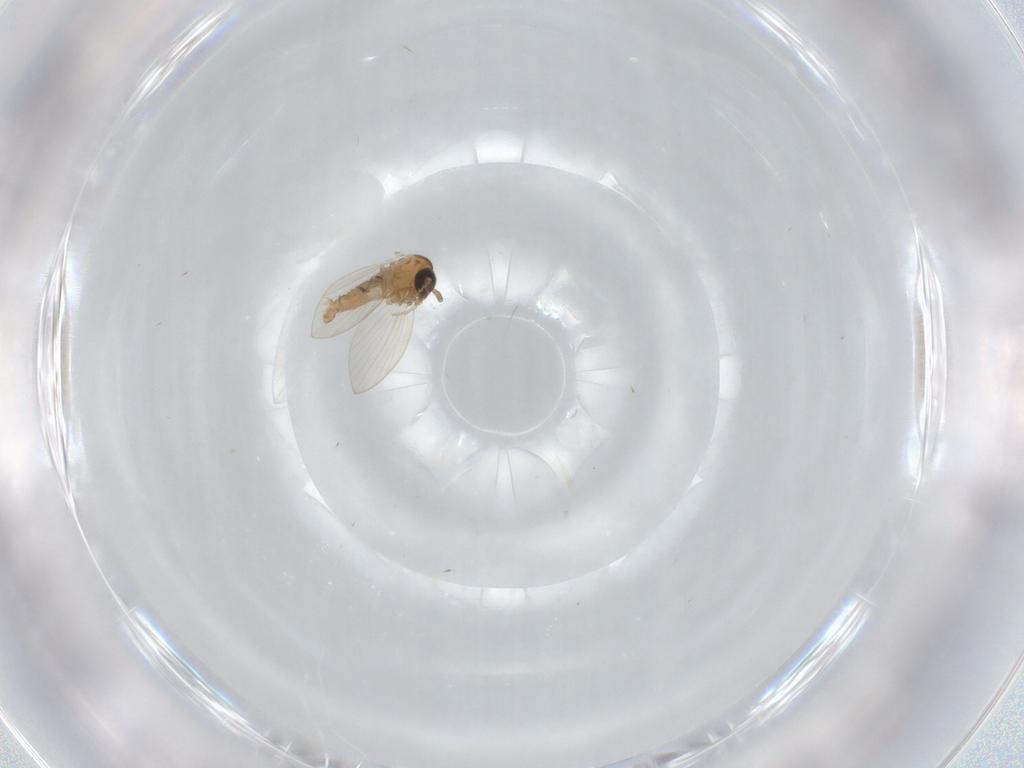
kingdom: Animalia
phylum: Arthropoda
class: Insecta
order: Diptera
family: Psychodidae
